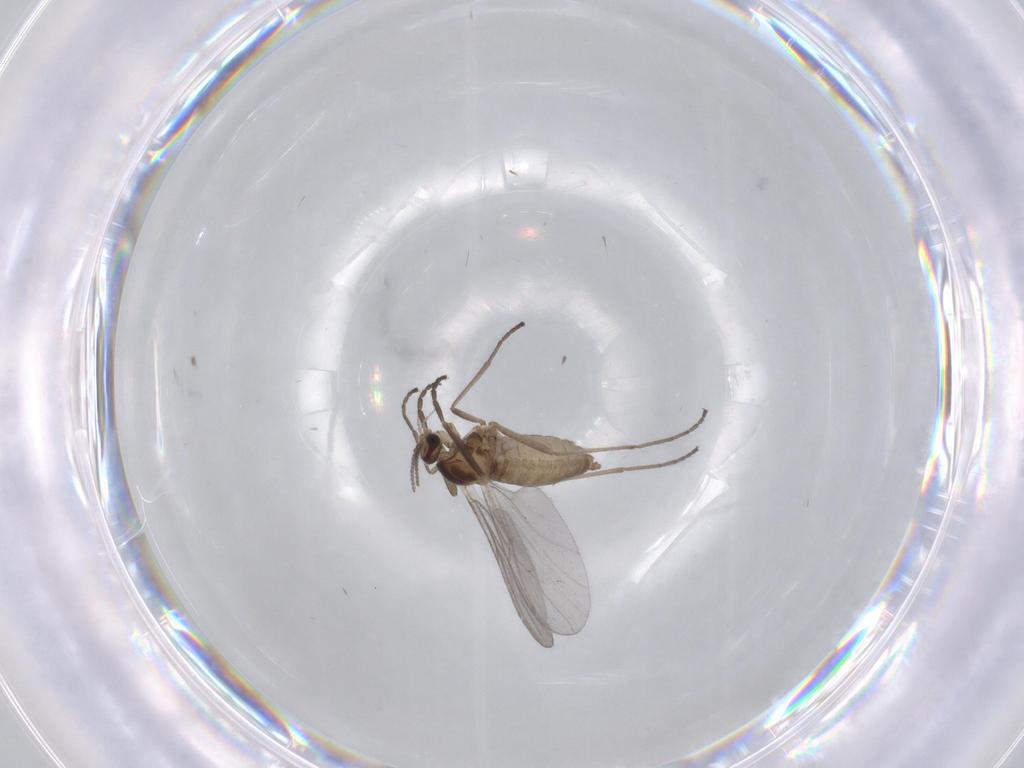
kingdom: Animalia
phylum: Arthropoda
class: Insecta
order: Diptera
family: Cecidomyiidae
